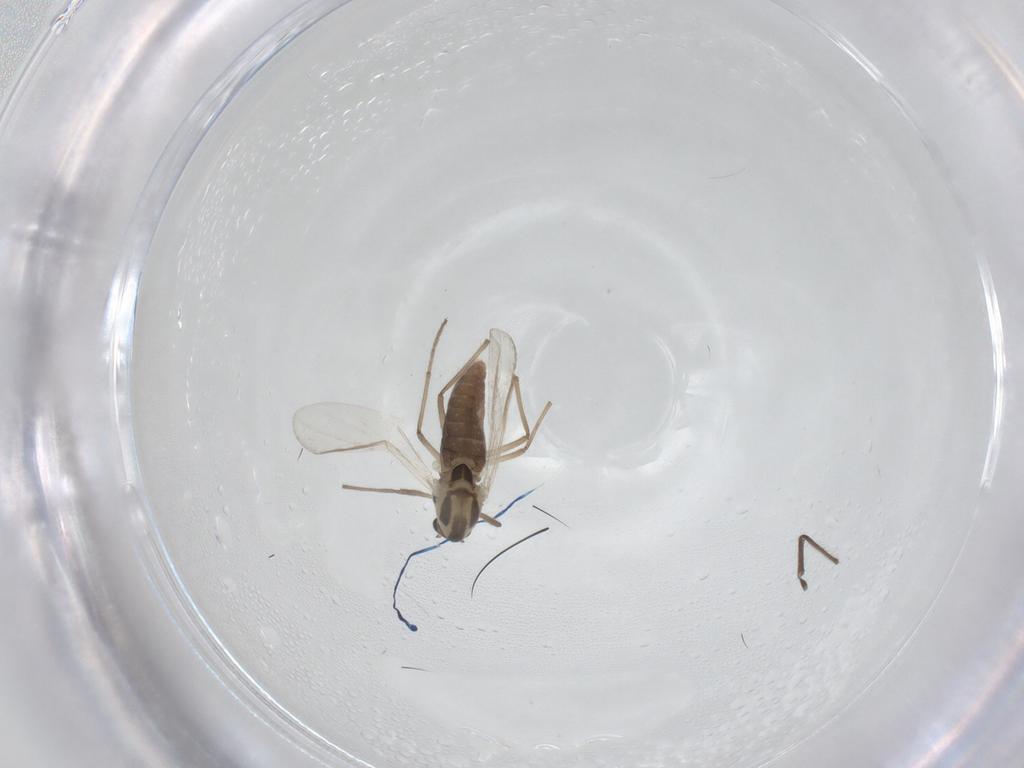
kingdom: Animalia
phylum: Arthropoda
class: Insecta
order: Diptera
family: Chironomidae
